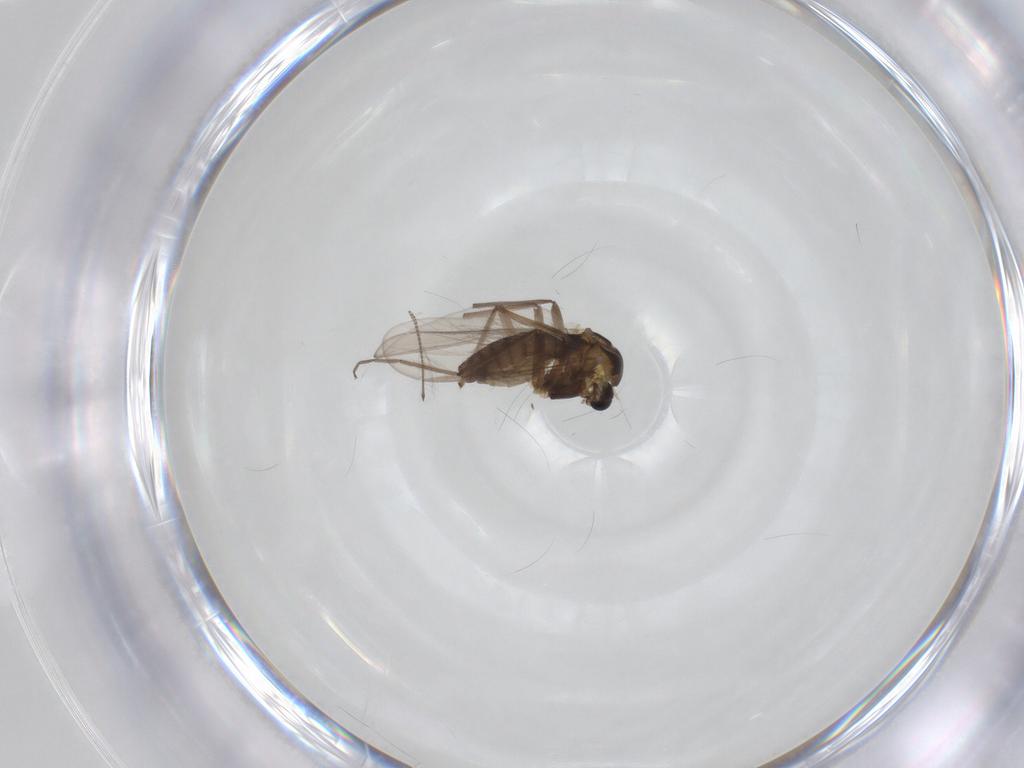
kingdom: Animalia
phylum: Arthropoda
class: Insecta
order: Diptera
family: Chironomidae
